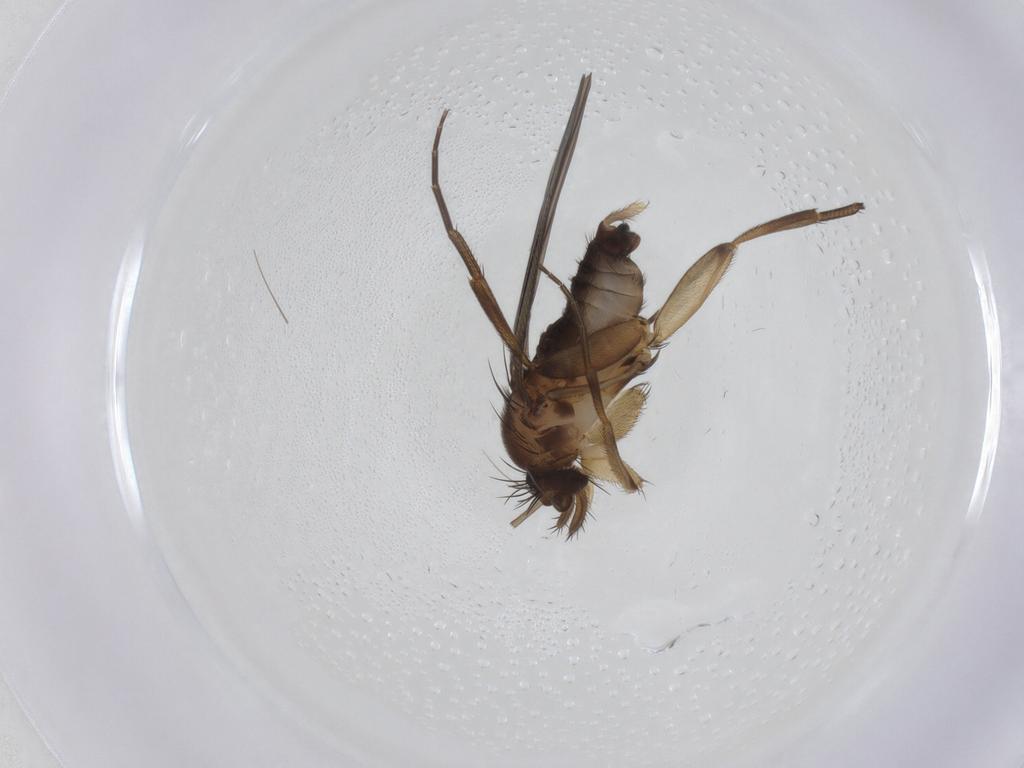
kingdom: Animalia
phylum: Arthropoda
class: Insecta
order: Diptera
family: Phoridae
